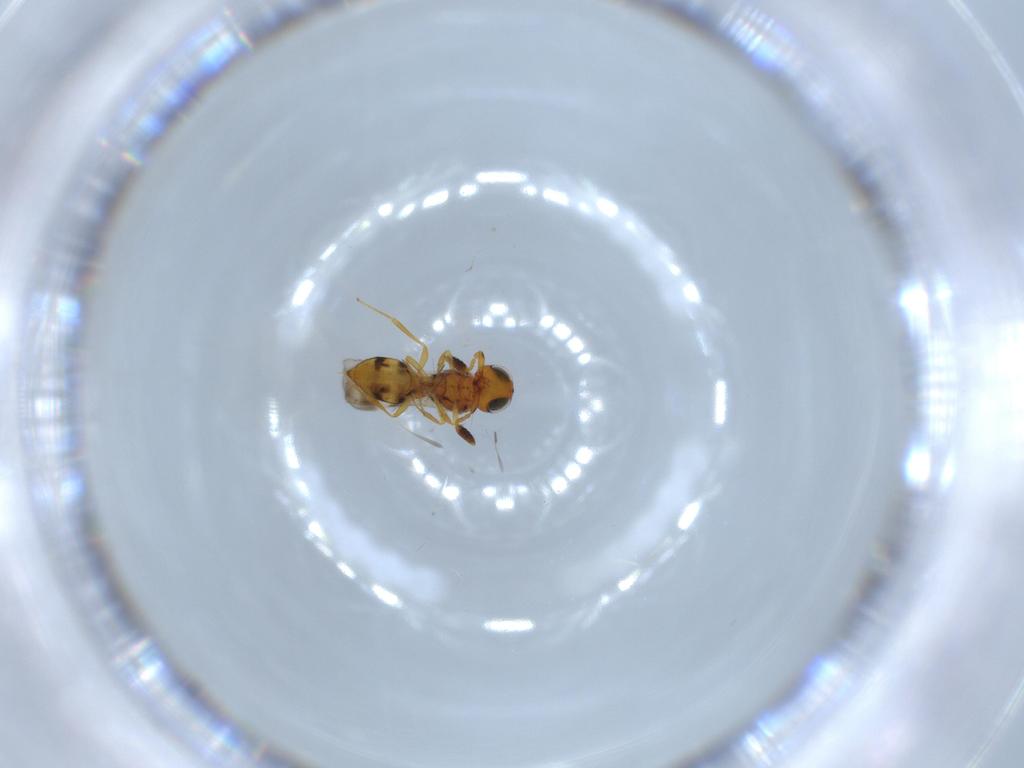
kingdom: Animalia
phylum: Arthropoda
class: Insecta
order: Hymenoptera
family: Scelionidae
